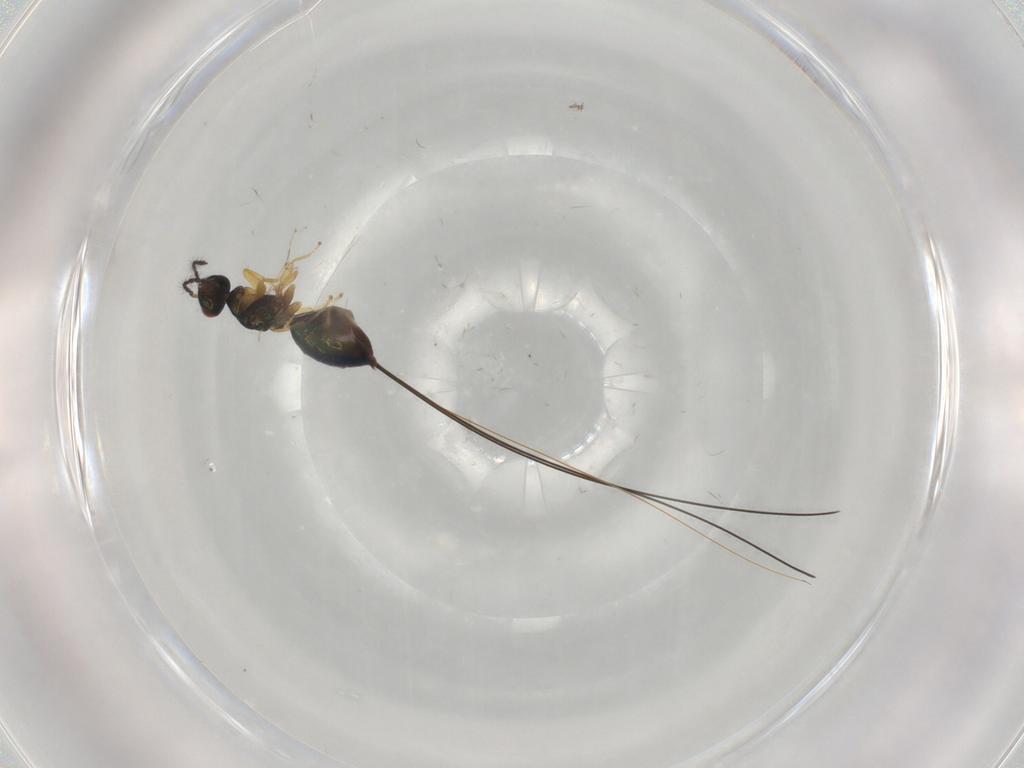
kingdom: Animalia
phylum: Arthropoda
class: Insecta
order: Hymenoptera
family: Pteromalidae
